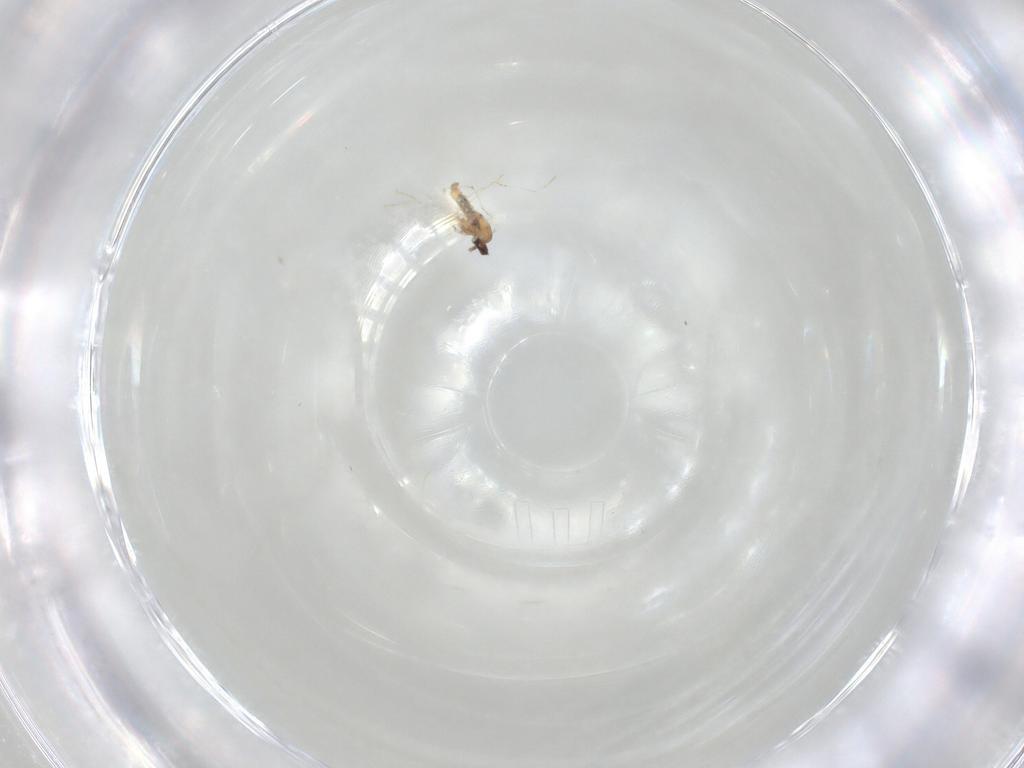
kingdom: Animalia
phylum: Arthropoda
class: Insecta
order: Diptera
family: Cecidomyiidae
